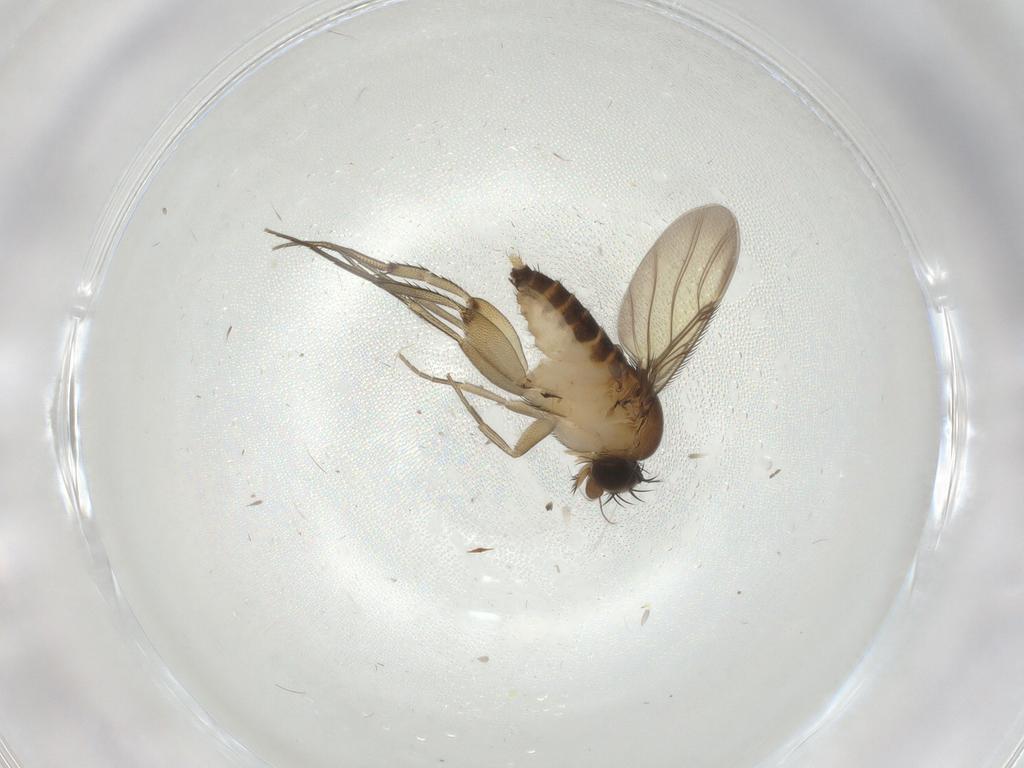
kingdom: Animalia
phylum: Arthropoda
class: Insecta
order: Diptera
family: Phoridae
